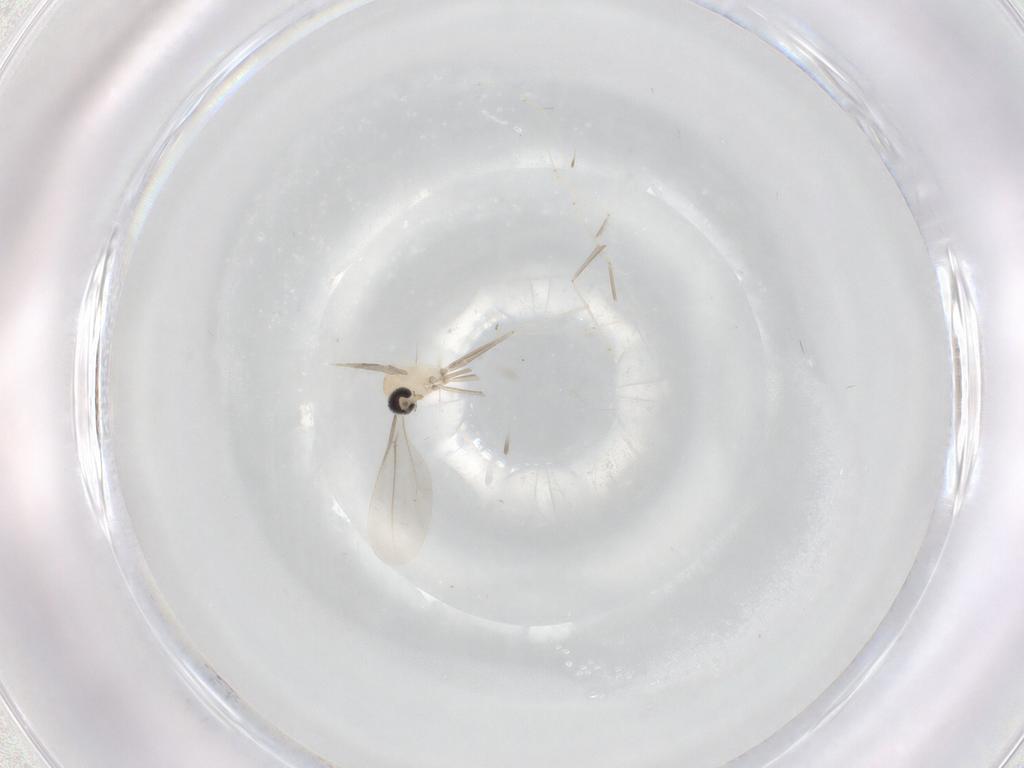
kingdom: Animalia
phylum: Arthropoda
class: Insecta
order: Diptera
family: Cecidomyiidae
